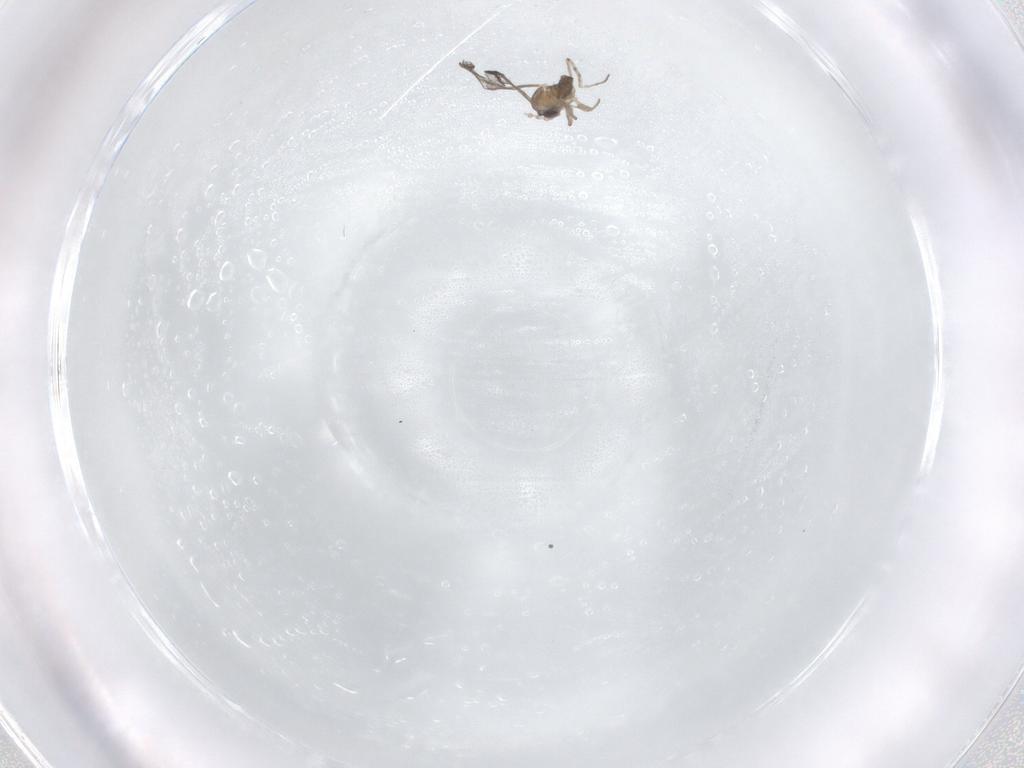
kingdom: Animalia
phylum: Arthropoda
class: Insecta
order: Diptera
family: Cecidomyiidae
